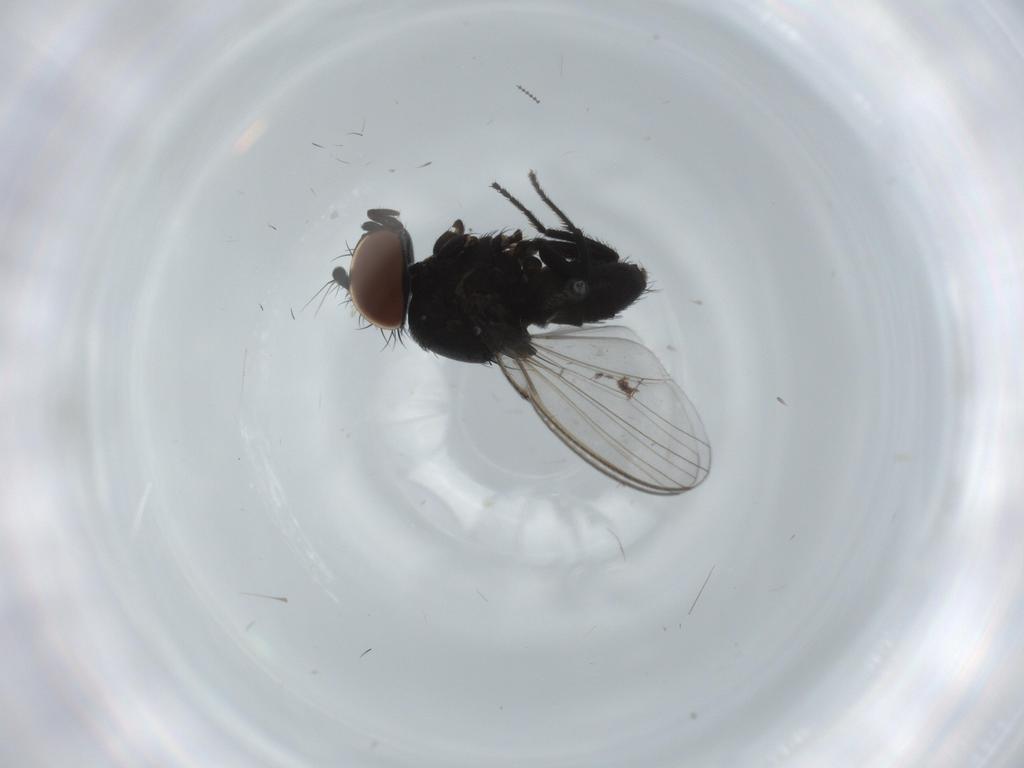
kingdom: Animalia
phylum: Arthropoda
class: Insecta
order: Diptera
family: Milichiidae
